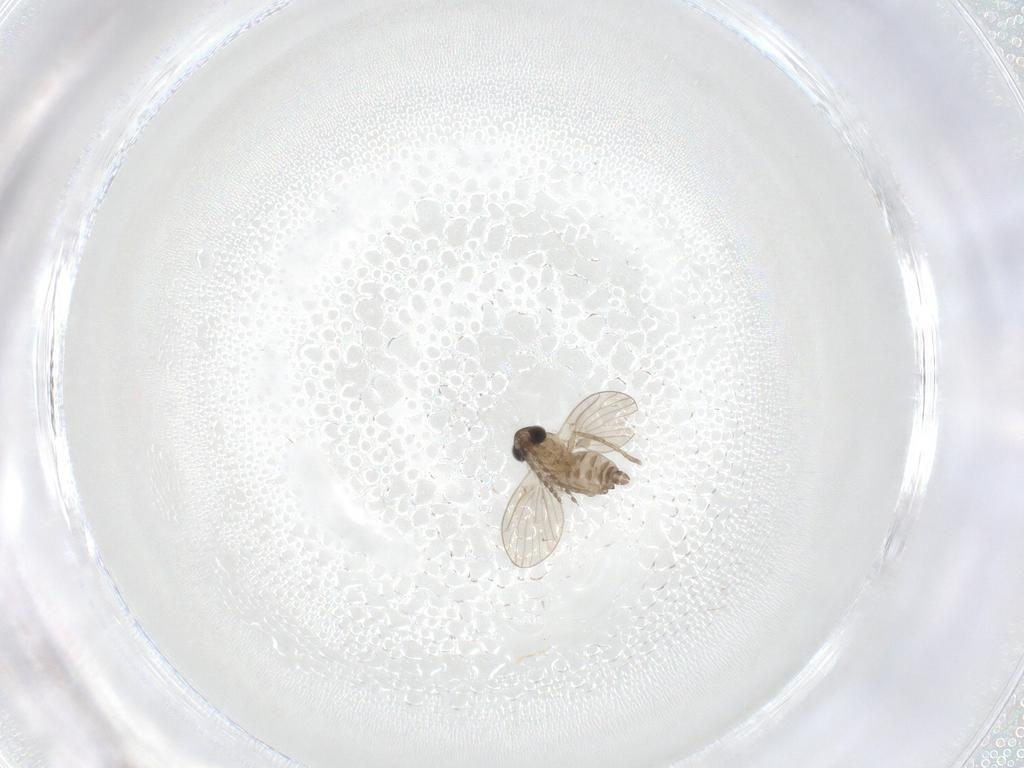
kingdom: Animalia
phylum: Arthropoda
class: Insecta
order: Diptera
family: Psychodidae
